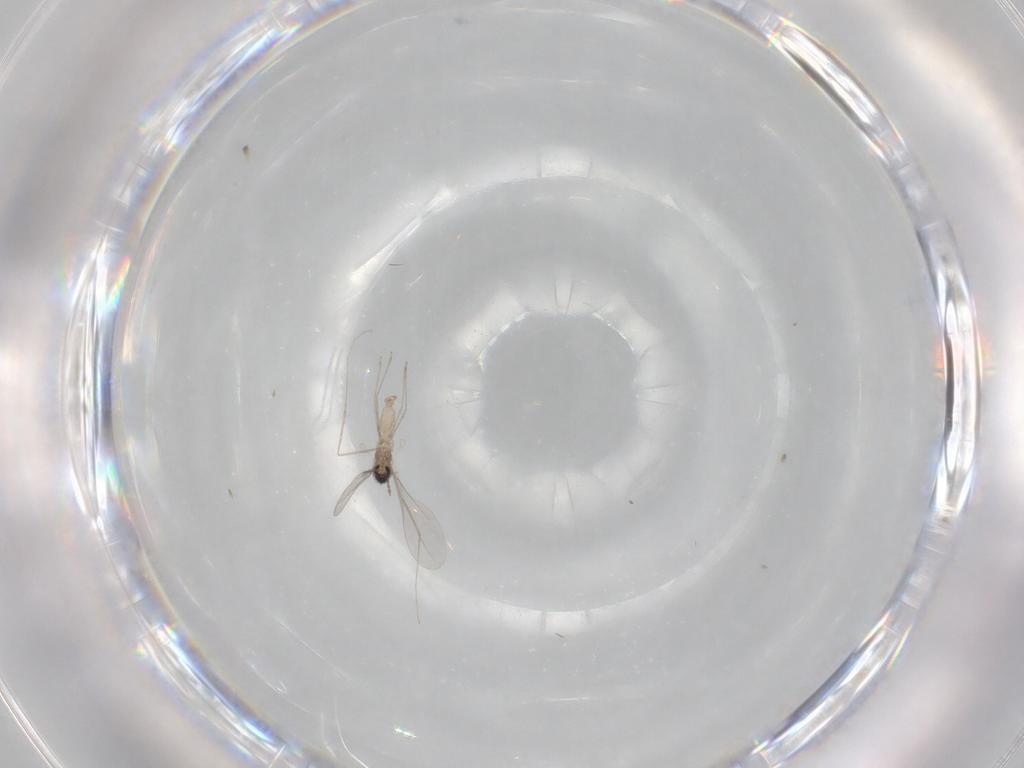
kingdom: Animalia
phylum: Arthropoda
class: Insecta
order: Diptera
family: Cecidomyiidae
